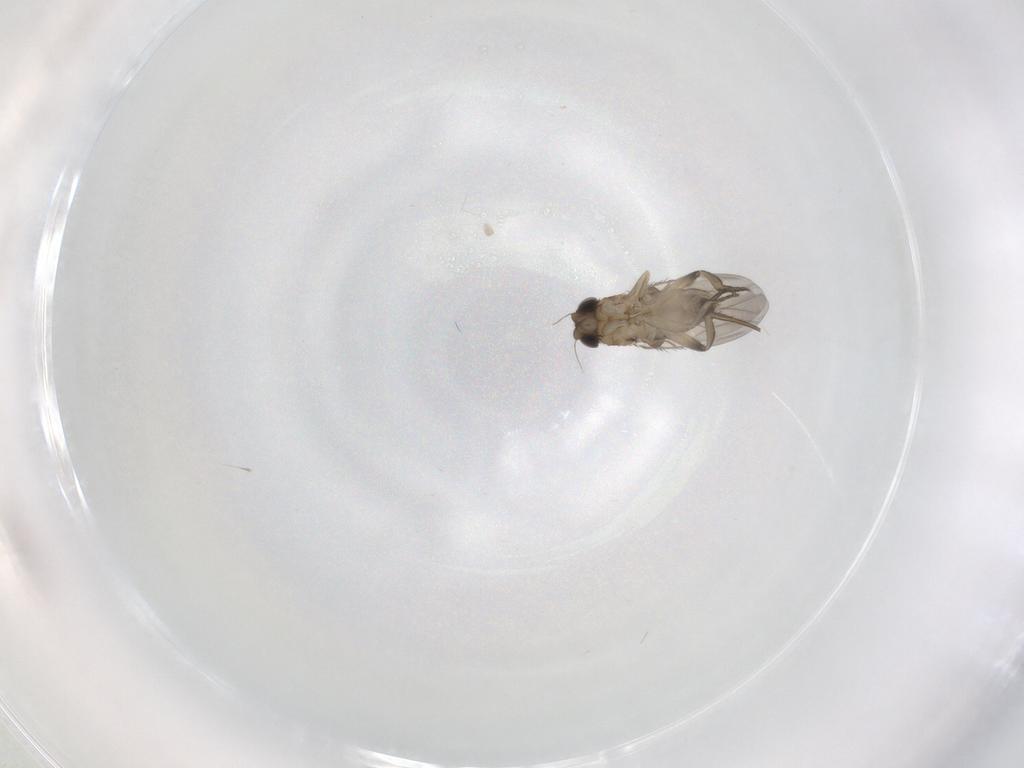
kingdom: Animalia
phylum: Arthropoda
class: Insecta
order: Diptera
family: Phoridae
